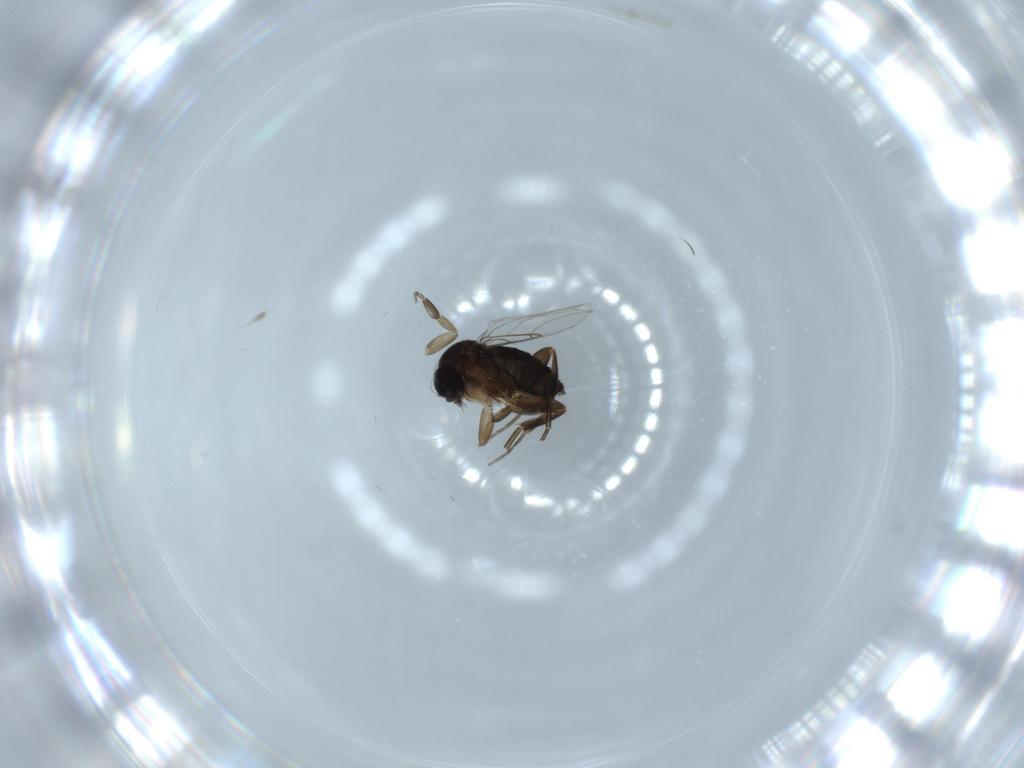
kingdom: Animalia
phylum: Arthropoda
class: Insecta
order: Diptera
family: Phoridae
